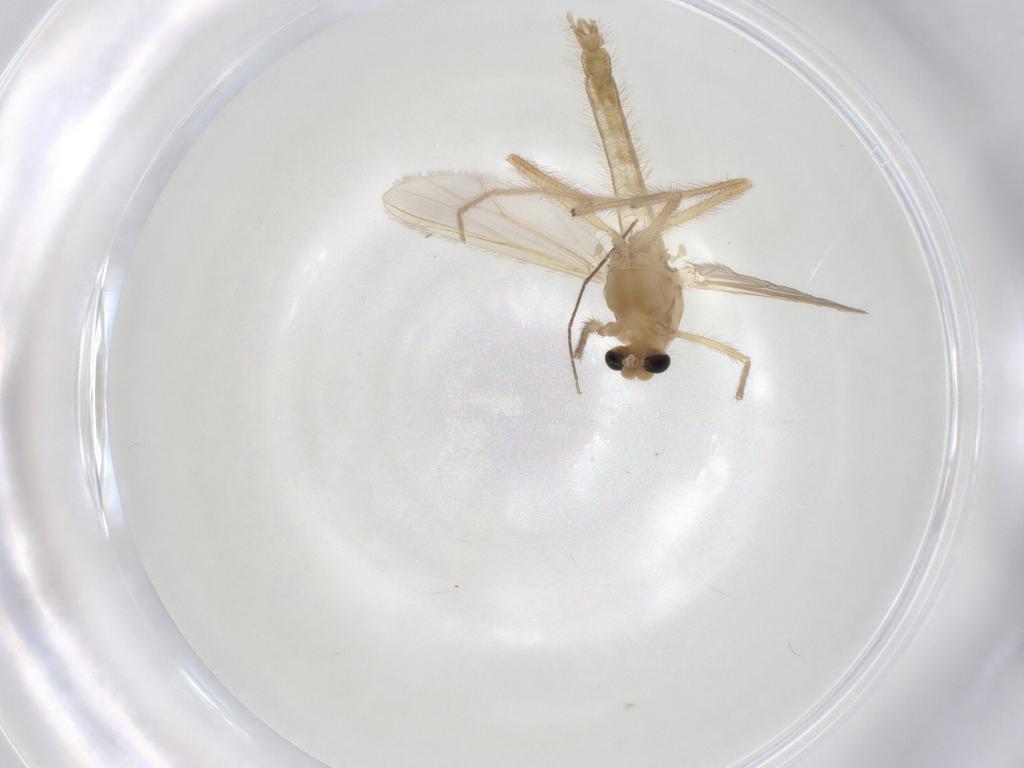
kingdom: Animalia
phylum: Arthropoda
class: Insecta
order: Diptera
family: Chironomidae
